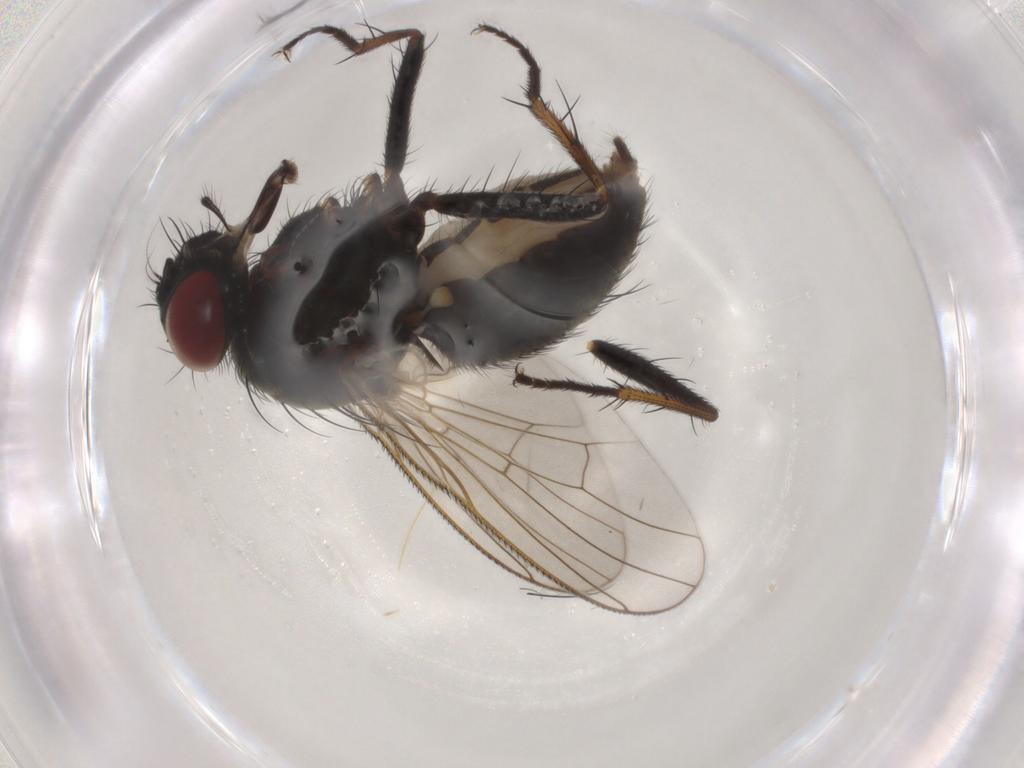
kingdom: Animalia
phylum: Arthropoda
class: Insecta
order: Diptera
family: Muscidae
